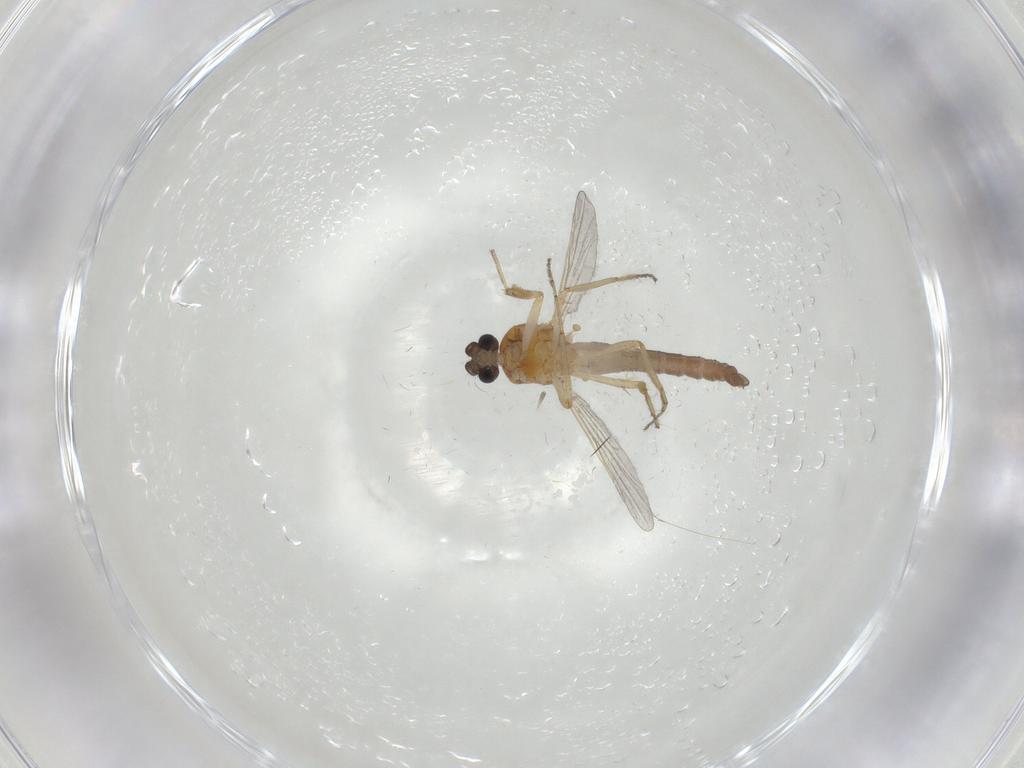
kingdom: Animalia
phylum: Arthropoda
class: Insecta
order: Diptera
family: Ceratopogonidae
